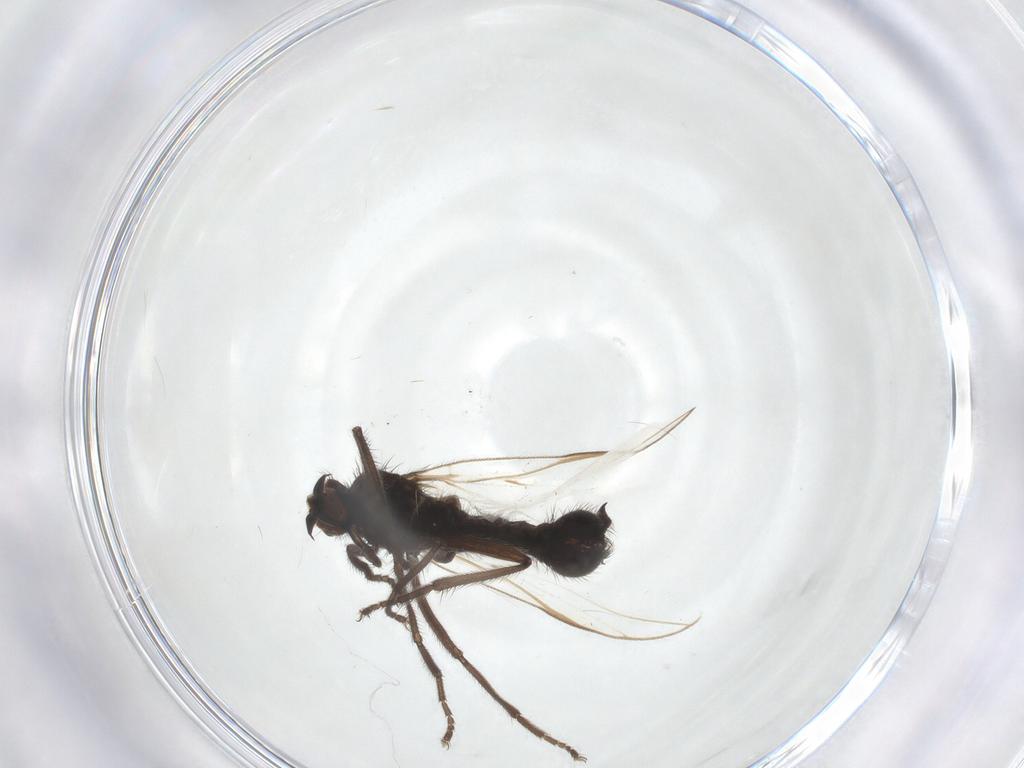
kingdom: Animalia
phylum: Arthropoda
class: Insecta
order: Diptera
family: Empididae
